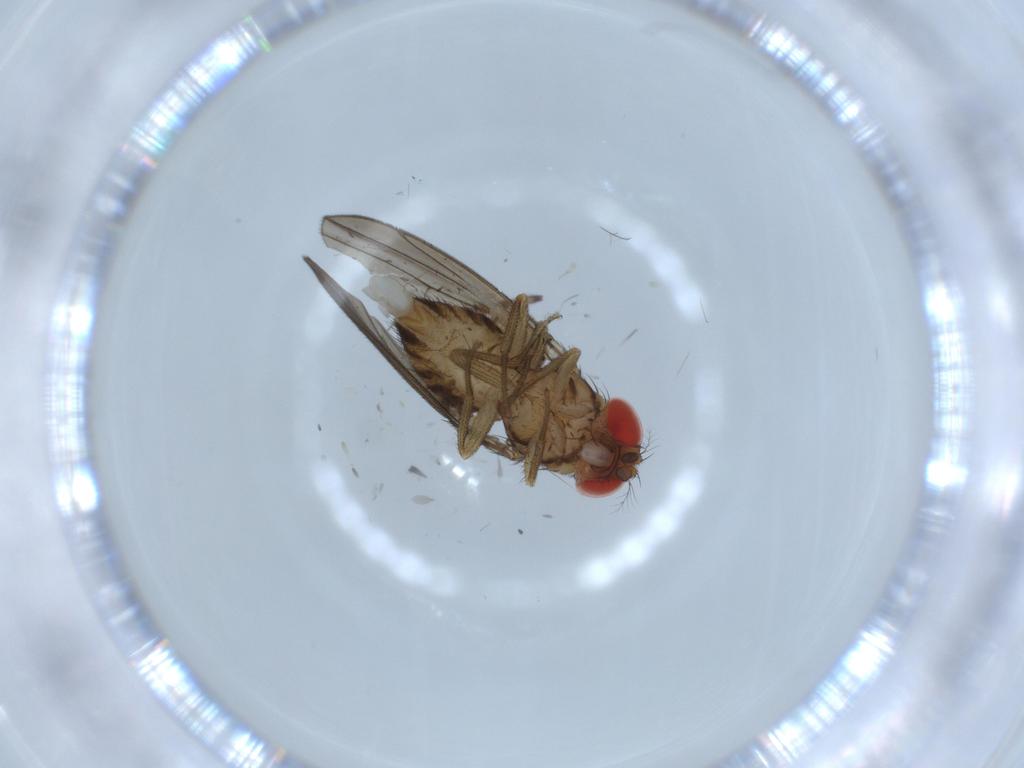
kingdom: Animalia
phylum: Arthropoda
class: Insecta
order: Diptera
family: Drosophilidae
